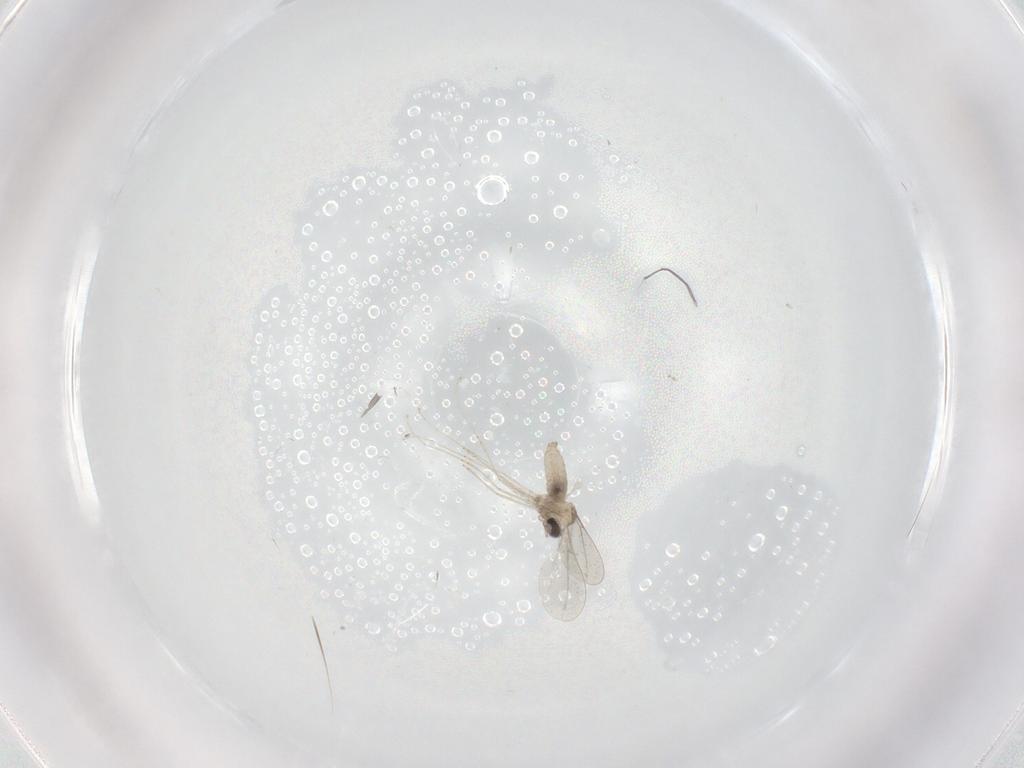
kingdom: Animalia
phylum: Arthropoda
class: Insecta
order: Diptera
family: Cecidomyiidae
